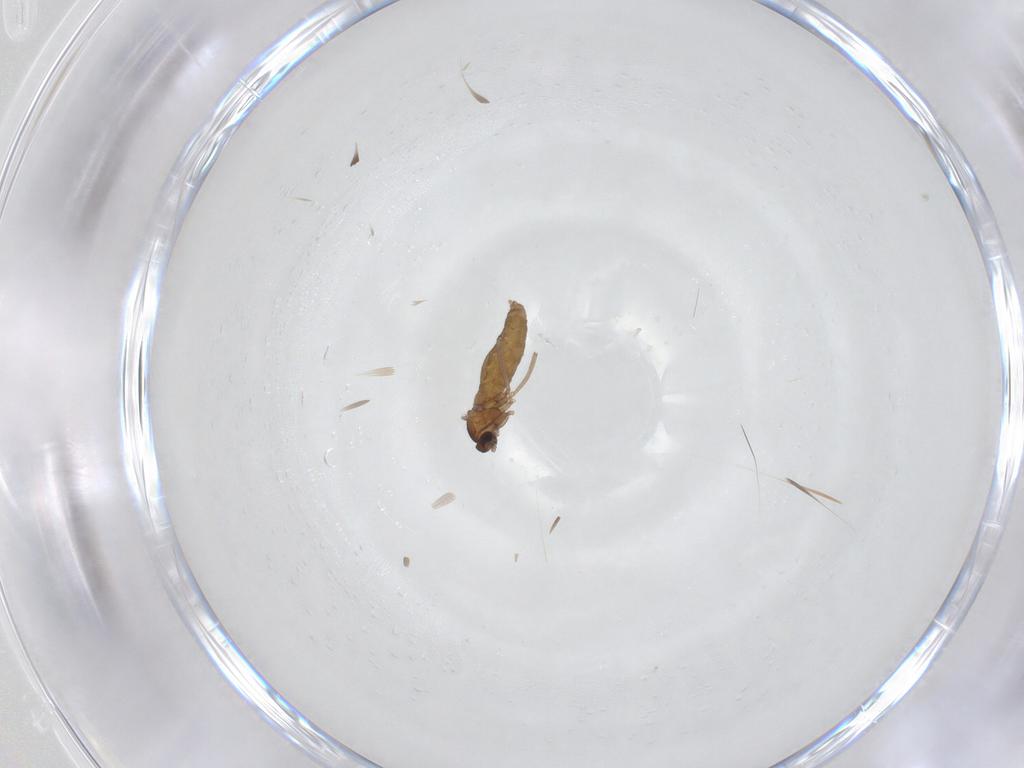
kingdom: Animalia
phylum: Arthropoda
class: Insecta
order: Diptera
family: Cecidomyiidae
